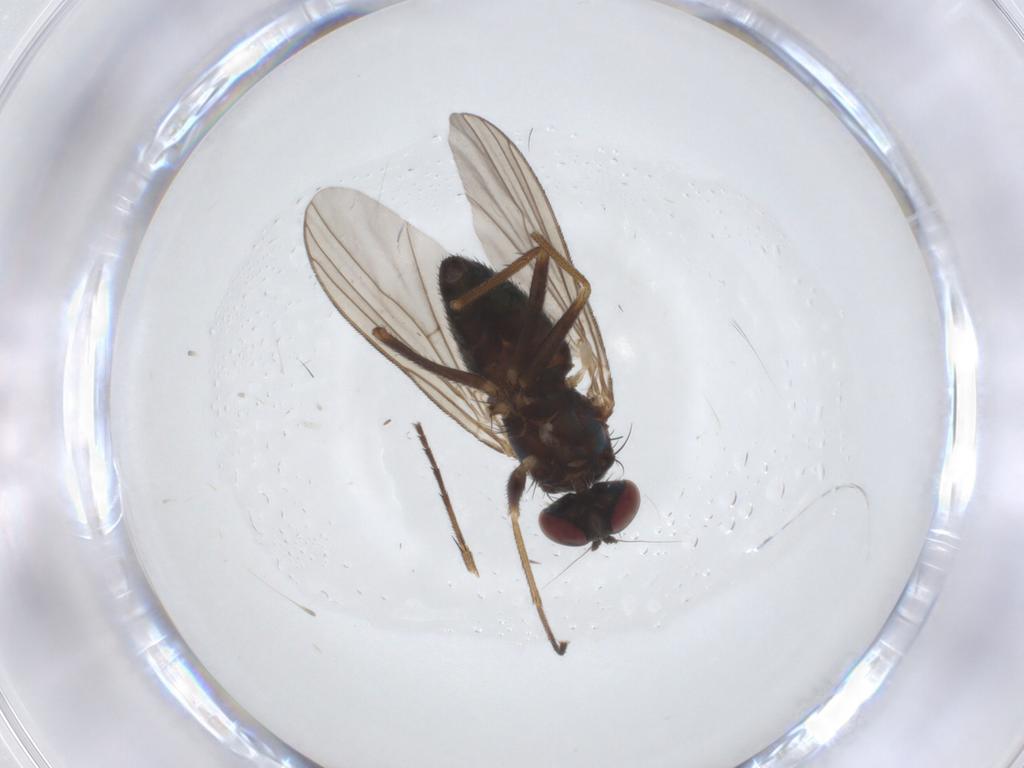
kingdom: Animalia
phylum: Arthropoda
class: Insecta
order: Diptera
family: Dolichopodidae
